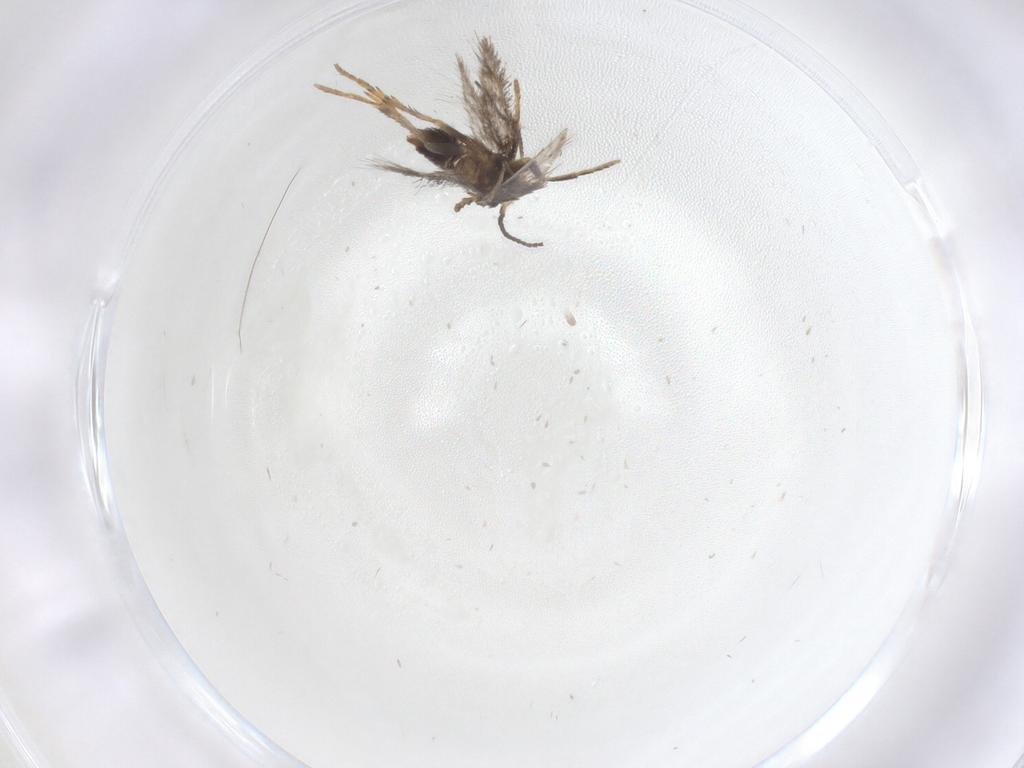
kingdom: Animalia
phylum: Arthropoda
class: Insecta
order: Lepidoptera
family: Nepticulidae
